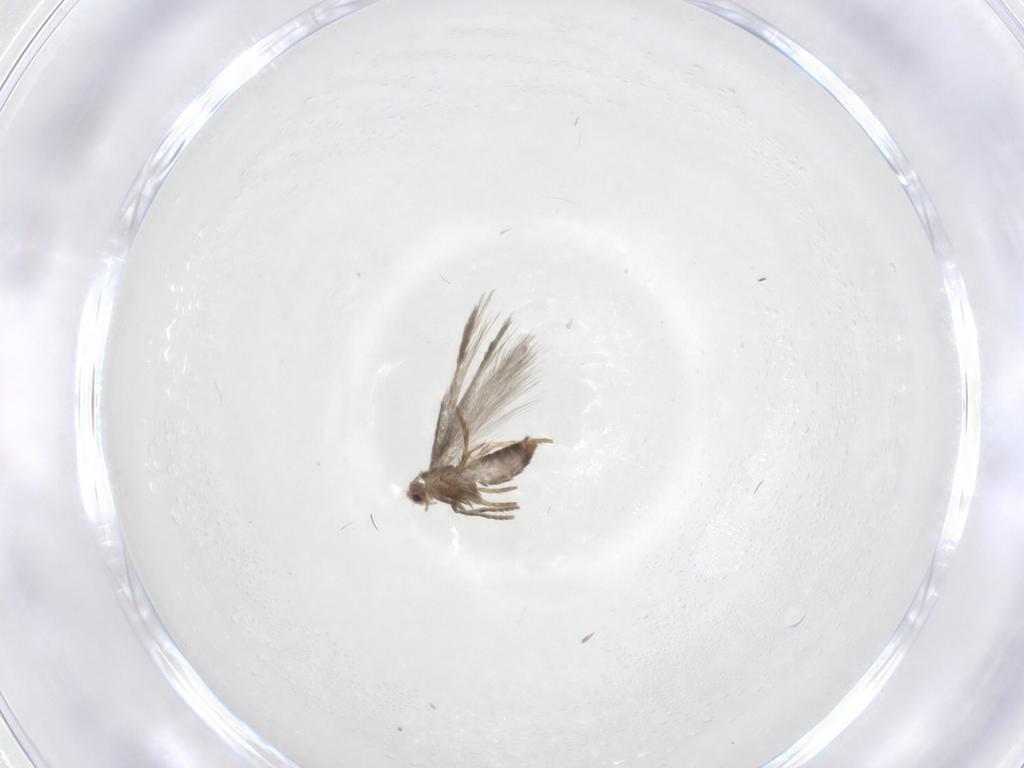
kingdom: Animalia
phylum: Arthropoda
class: Insecta
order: Lepidoptera
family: Nepticulidae
